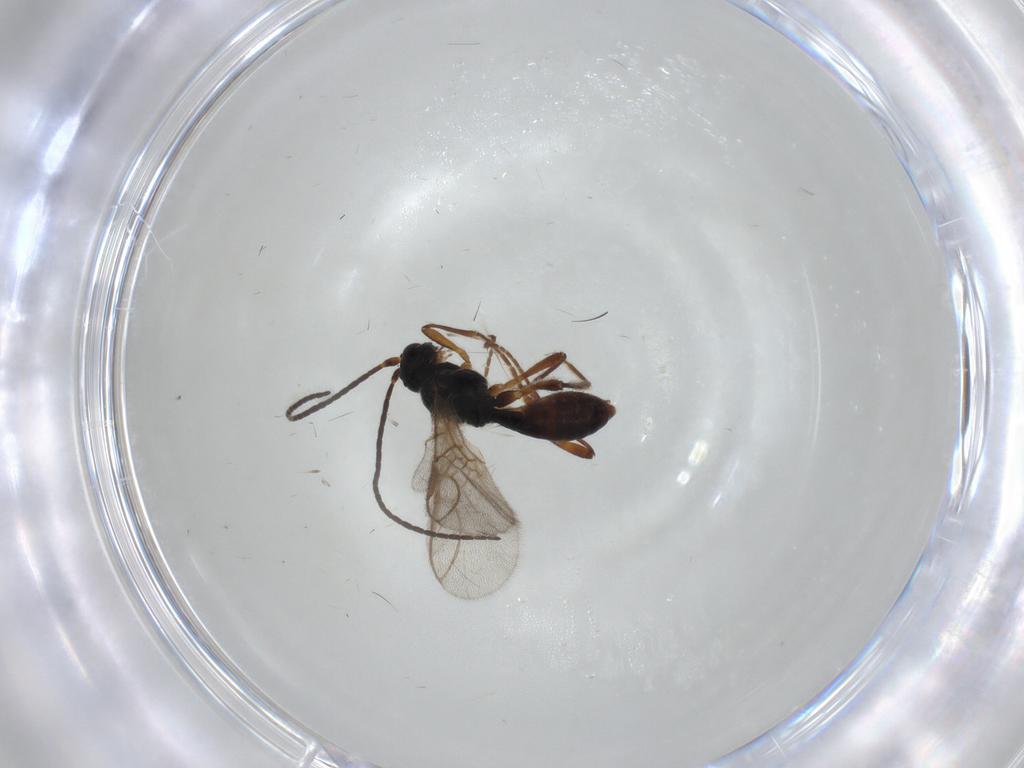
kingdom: Animalia
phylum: Arthropoda
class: Insecta
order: Hymenoptera
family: Braconidae
